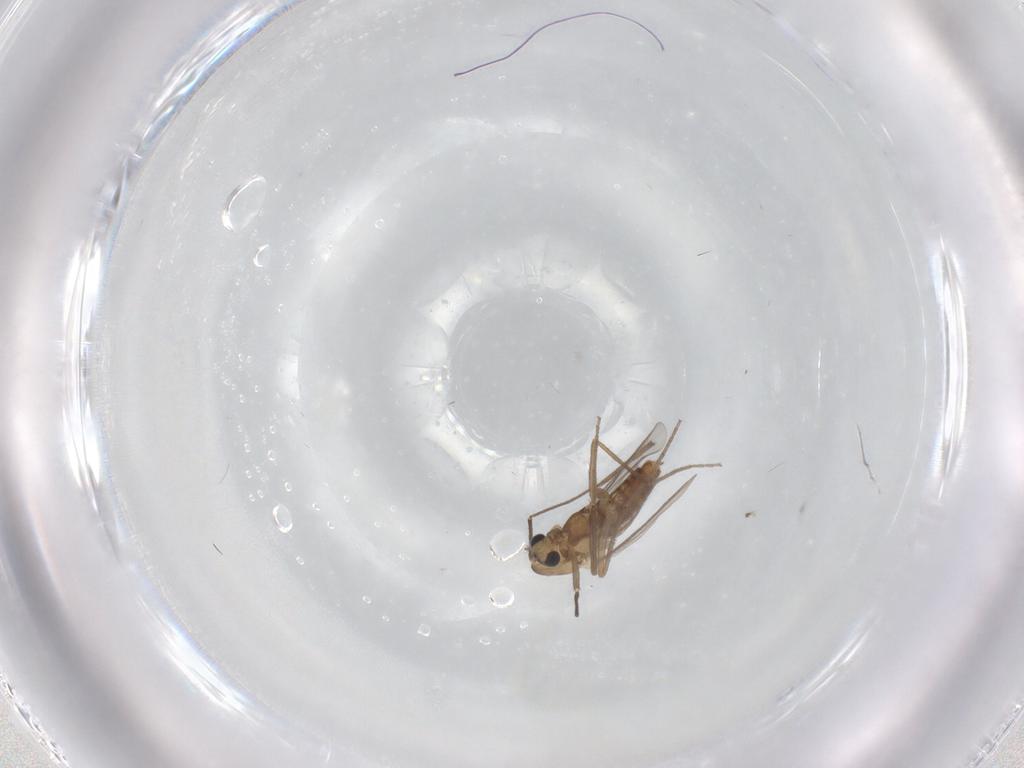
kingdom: Animalia
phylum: Arthropoda
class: Insecta
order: Diptera
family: Chironomidae
